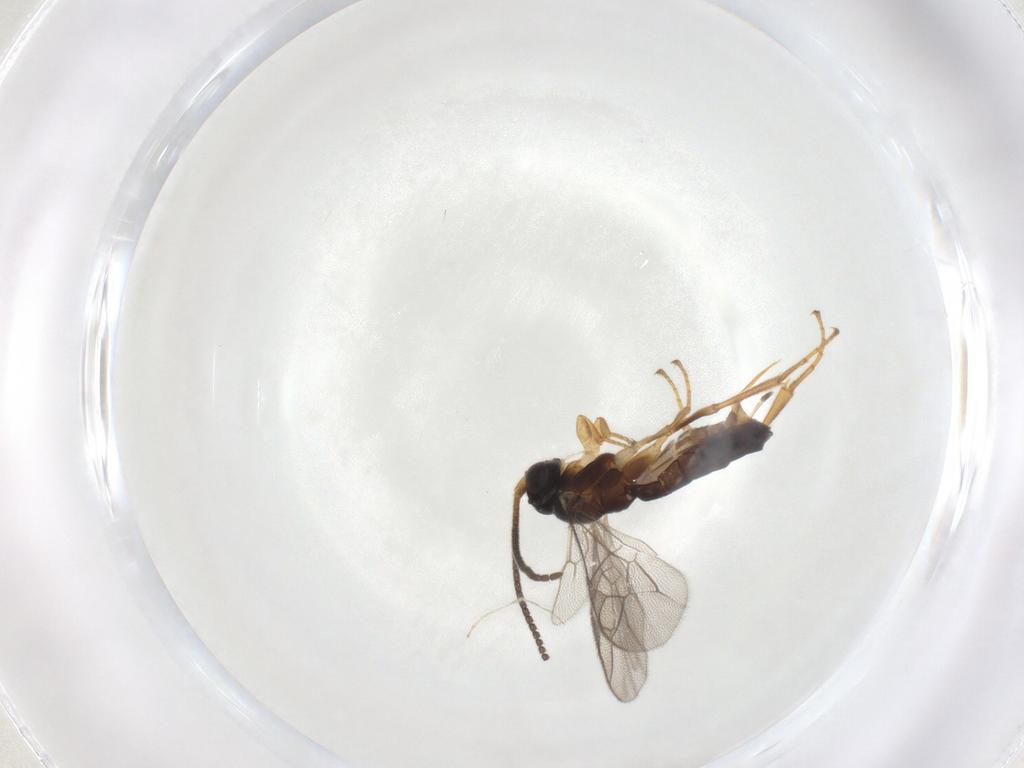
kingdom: Animalia
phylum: Arthropoda
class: Insecta
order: Hymenoptera
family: Ichneumonidae
